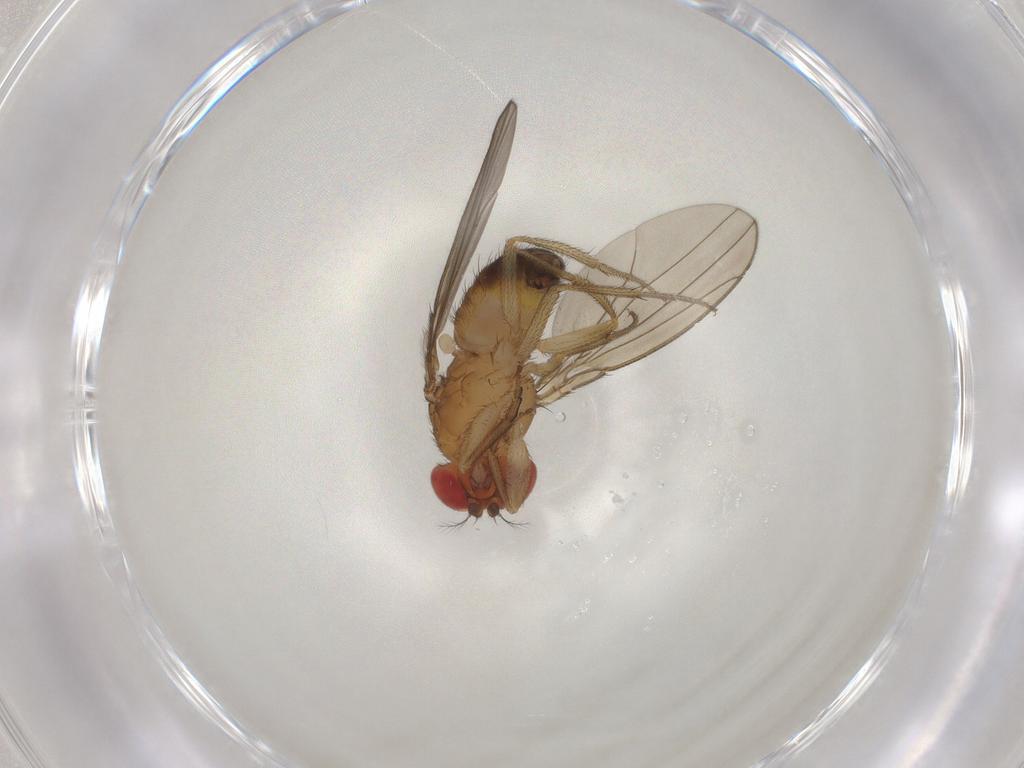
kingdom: Animalia
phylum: Arthropoda
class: Insecta
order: Diptera
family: Drosophilidae
